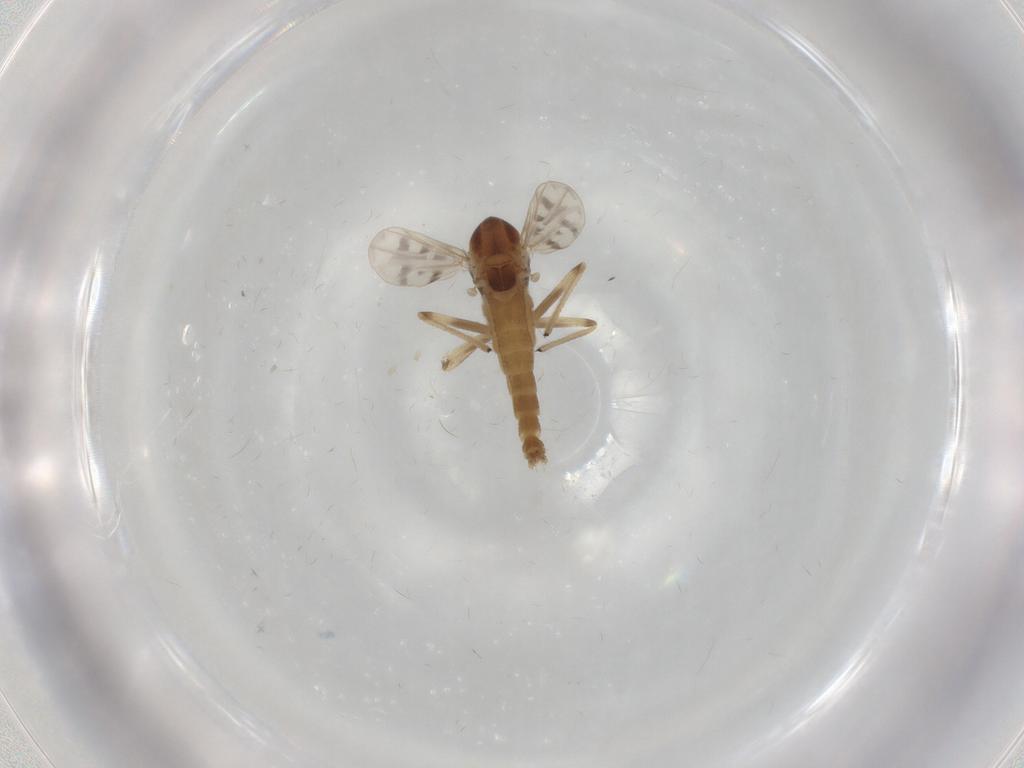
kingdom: Animalia
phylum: Arthropoda
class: Insecta
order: Diptera
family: Chironomidae
